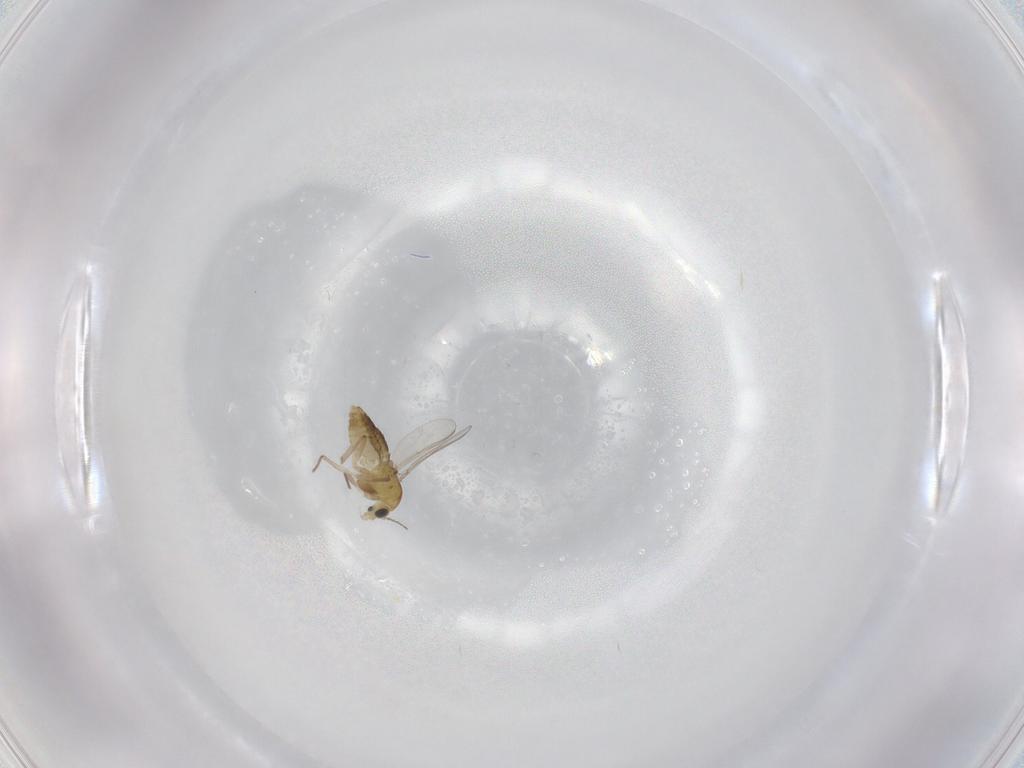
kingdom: Animalia
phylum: Arthropoda
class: Insecta
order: Diptera
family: Chironomidae
